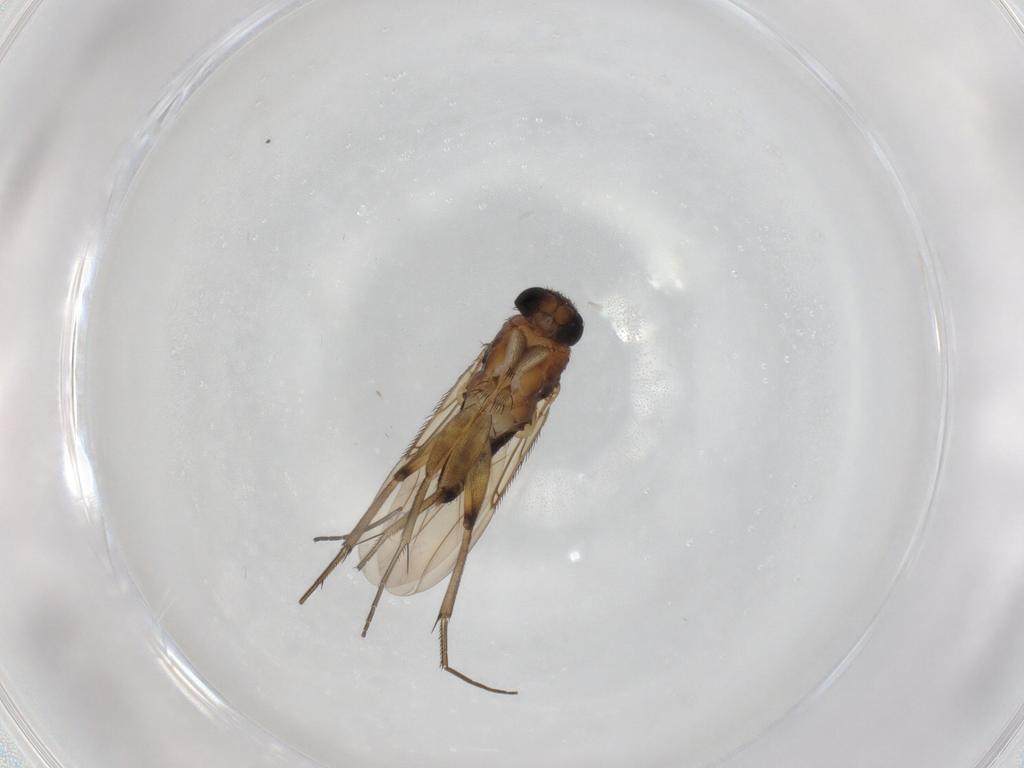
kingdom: Animalia
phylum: Arthropoda
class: Insecta
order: Diptera
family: Phoridae
